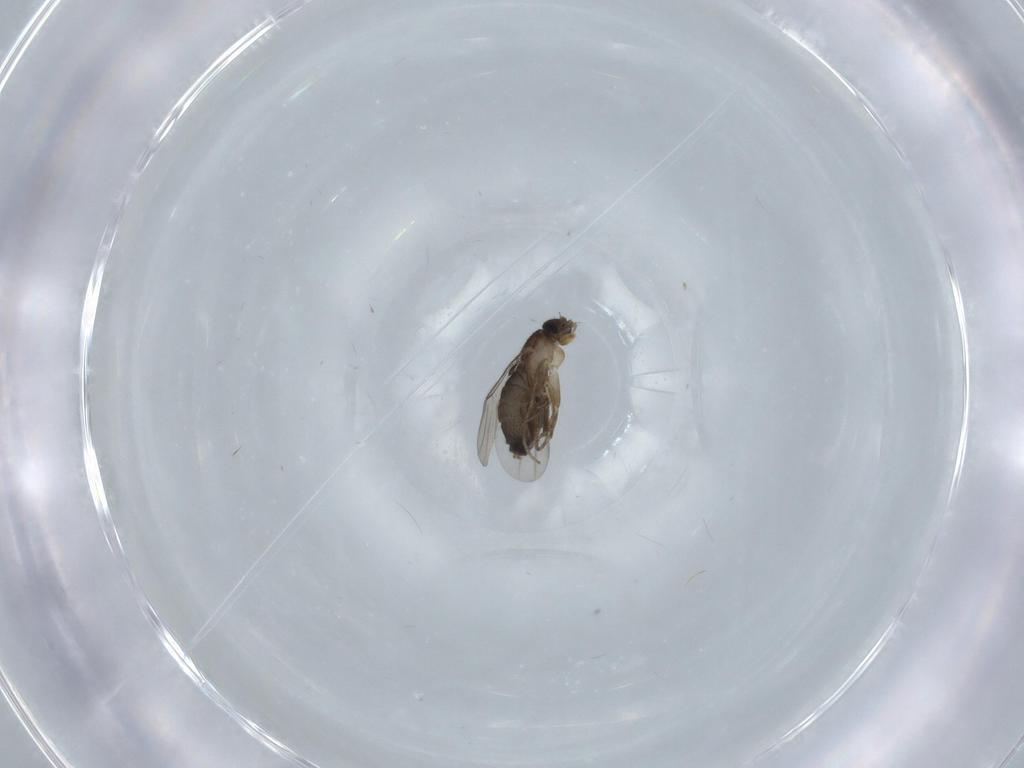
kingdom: Animalia
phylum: Arthropoda
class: Insecta
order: Diptera
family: Phoridae
